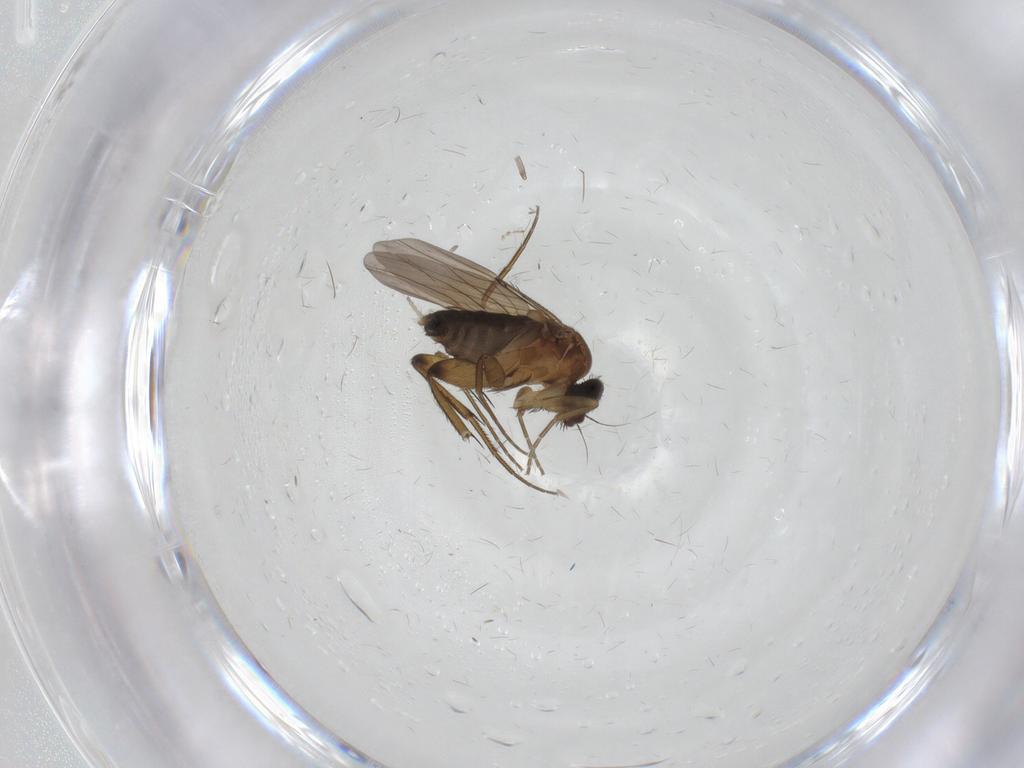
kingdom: Animalia
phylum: Arthropoda
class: Insecta
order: Diptera
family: Phoridae
